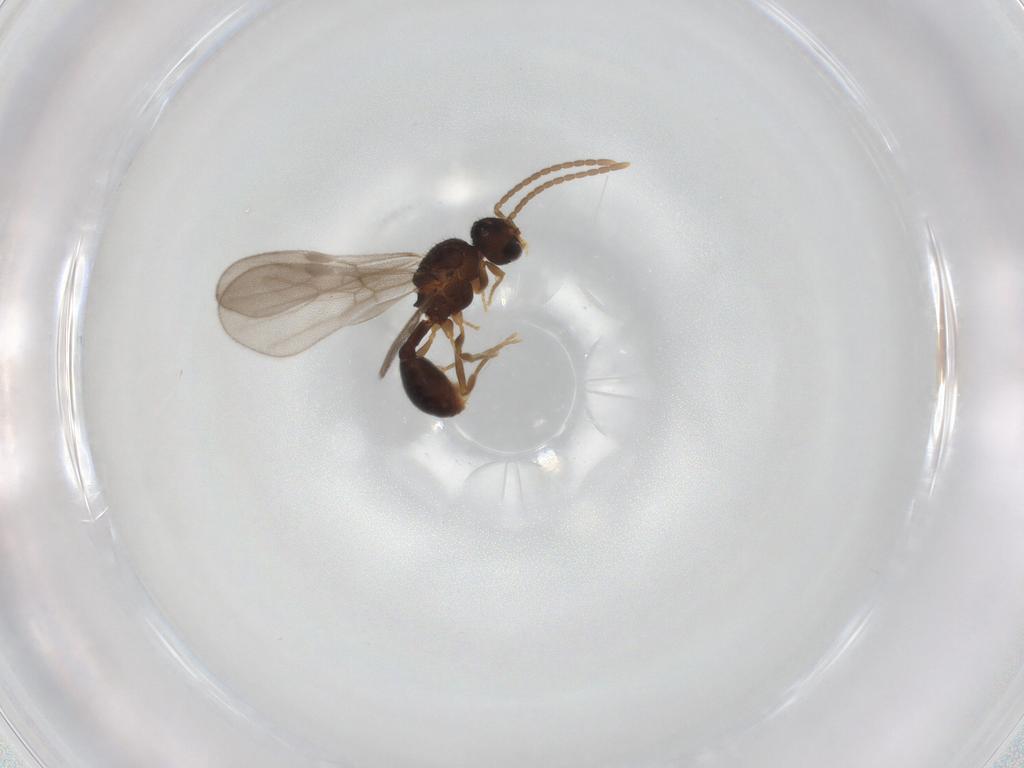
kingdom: Animalia
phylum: Arthropoda
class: Insecta
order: Hymenoptera
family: Formicidae
